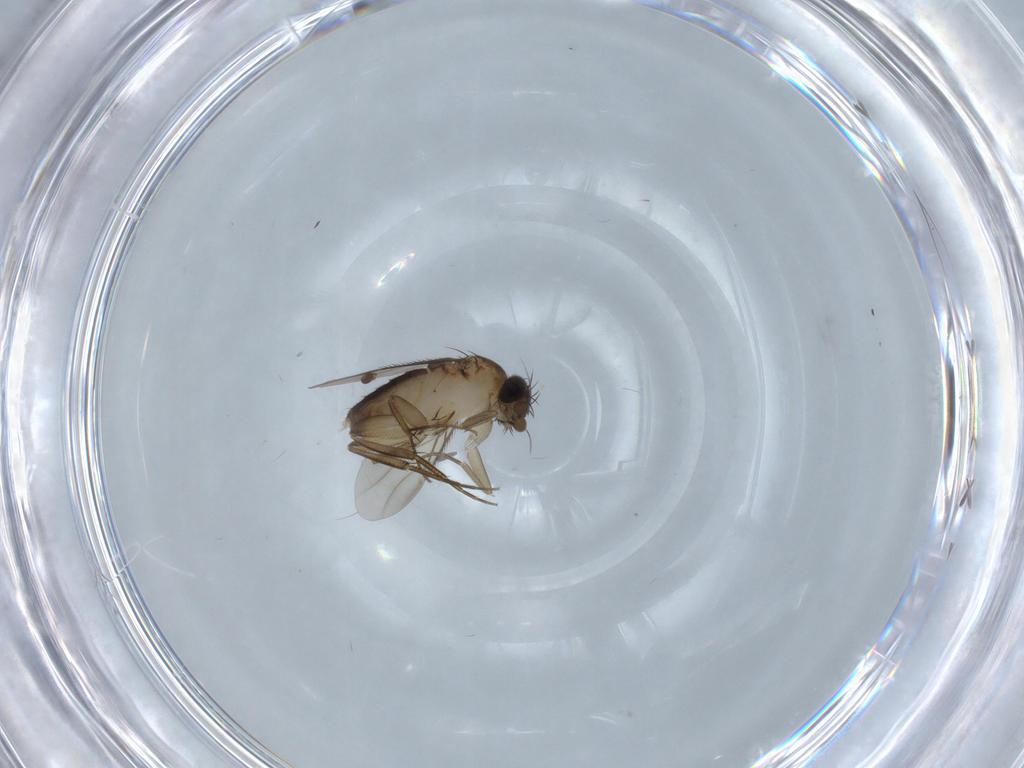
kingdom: Animalia
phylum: Arthropoda
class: Insecta
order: Diptera
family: Phoridae
